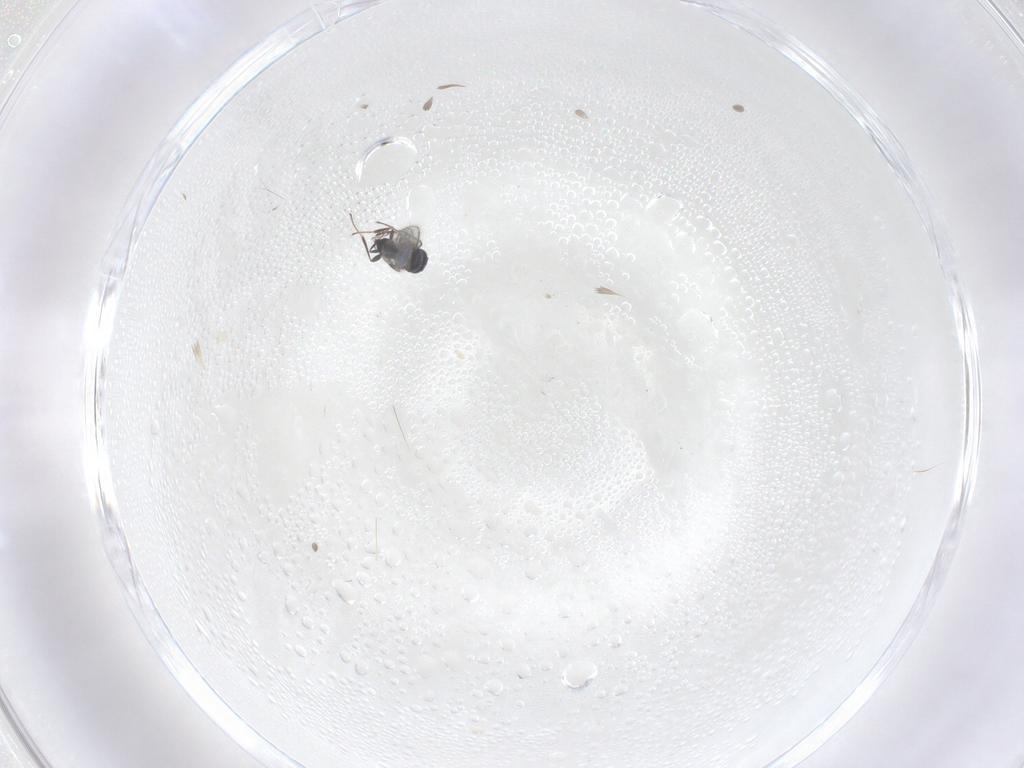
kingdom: Animalia
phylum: Arthropoda
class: Insecta
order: Hymenoptera
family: Scelionidae
